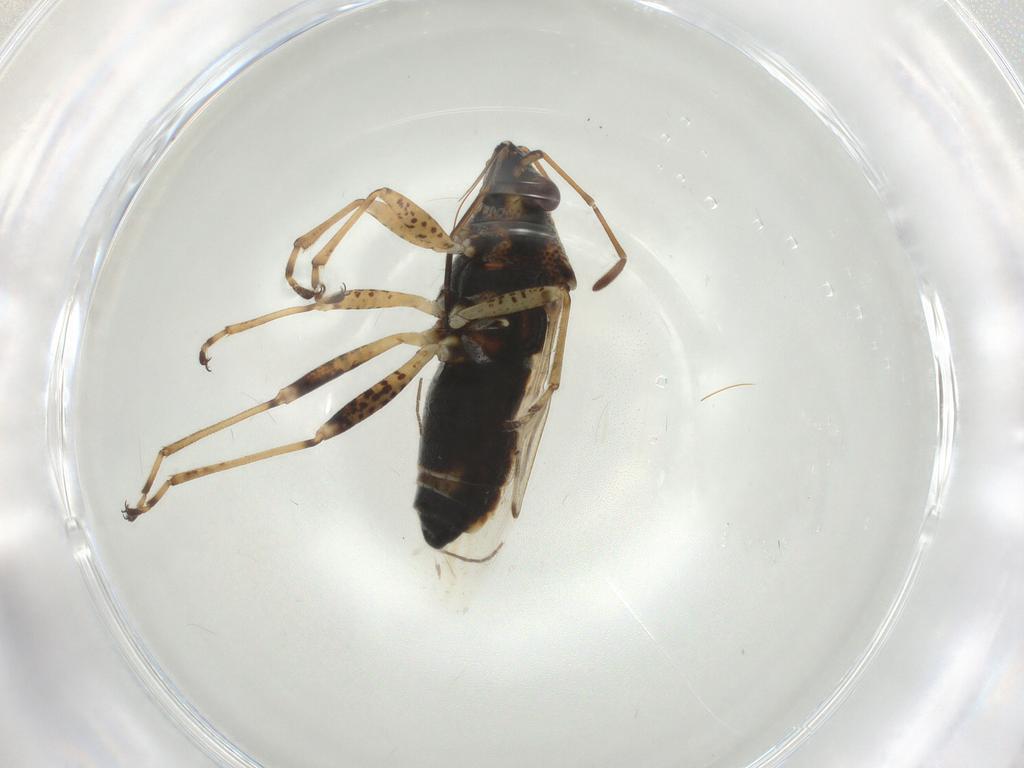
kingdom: Animalia
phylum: Arthropoda
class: Insecta
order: Hemiptera
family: Tingidae
